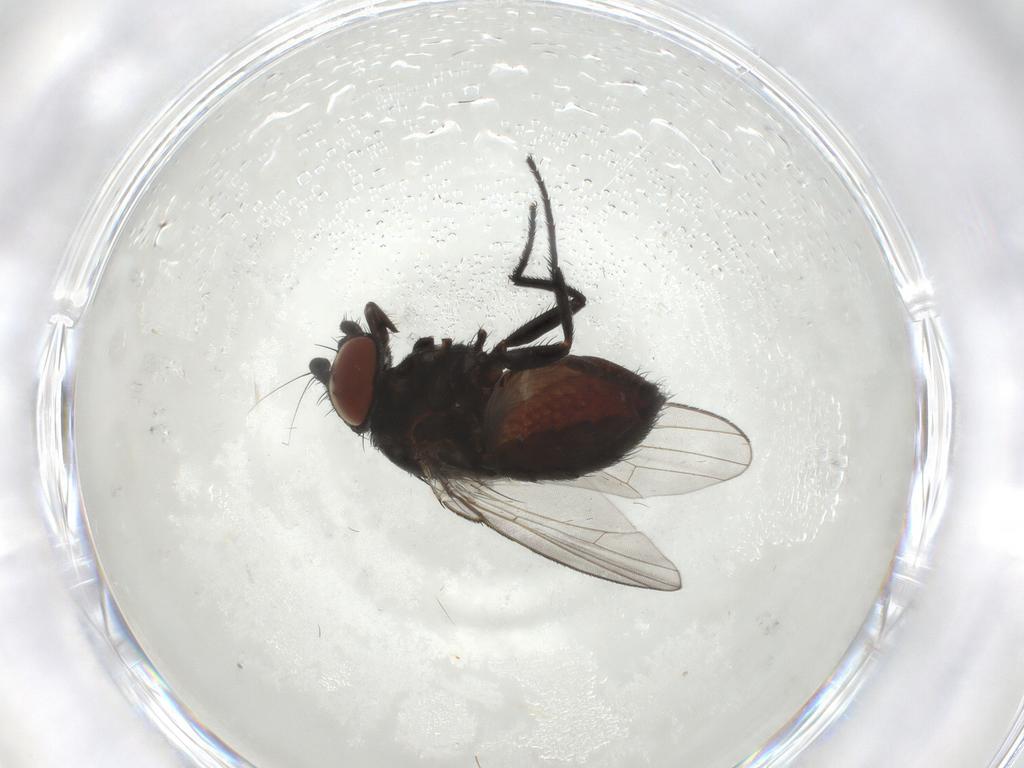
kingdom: Animalia
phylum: Arthropoda
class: Insecta
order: Diptera
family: Milichiidae
